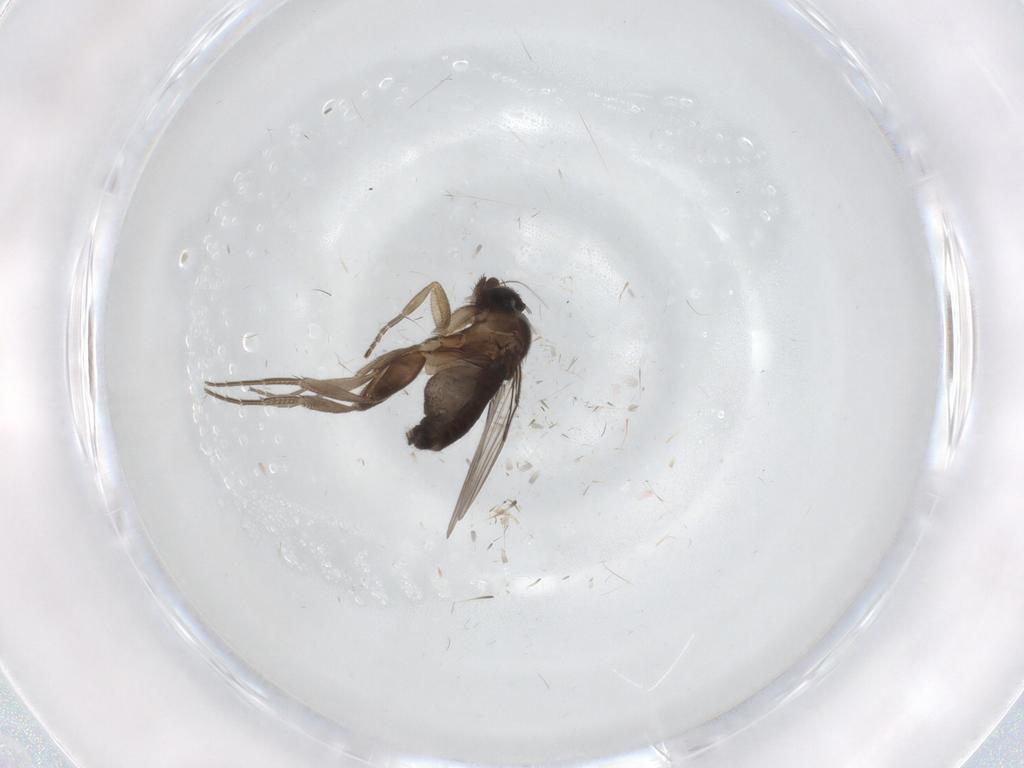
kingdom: Animalia
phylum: Arthropoda
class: Insecta
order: Diptera
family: Phoridae
